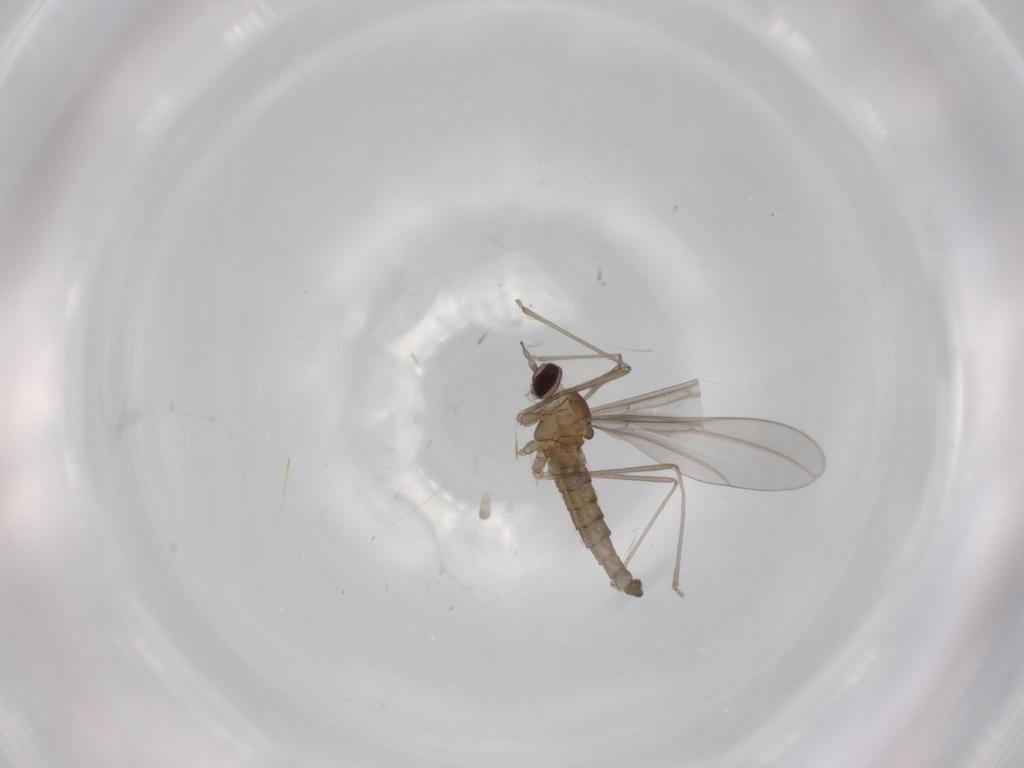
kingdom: Animalia
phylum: Arthropoda
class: Insecta
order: Diptera
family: Cecidomyiidae
